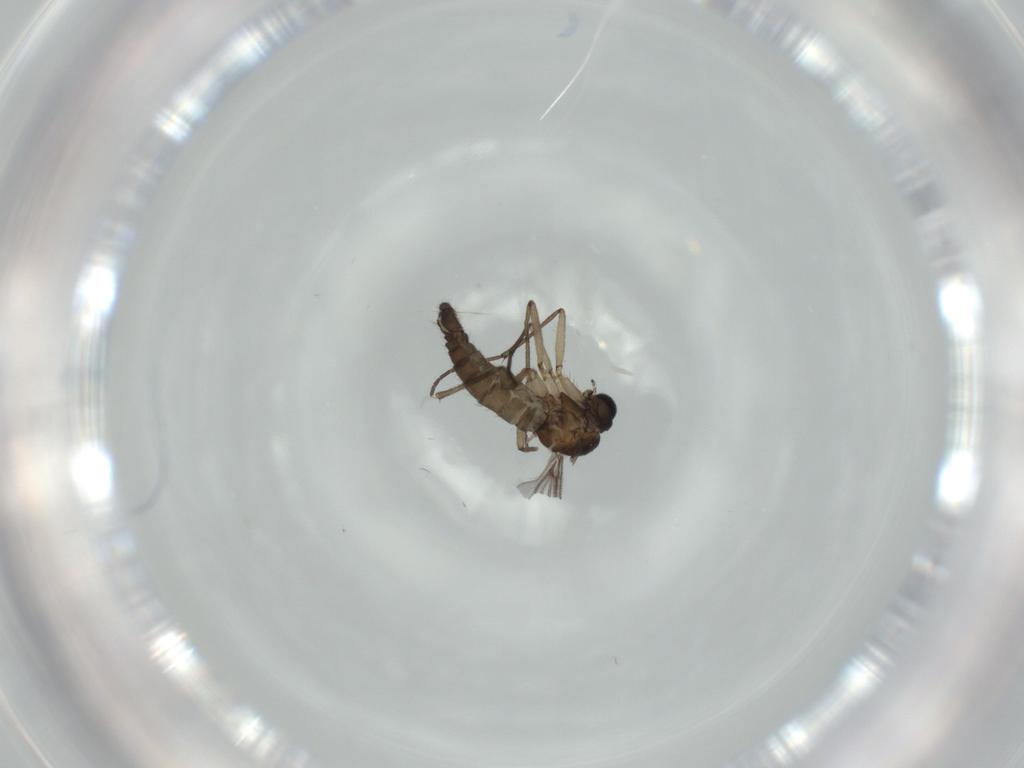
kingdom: Animalia
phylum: Arthropoda
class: Insecta
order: Diptera
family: Sciaridae
